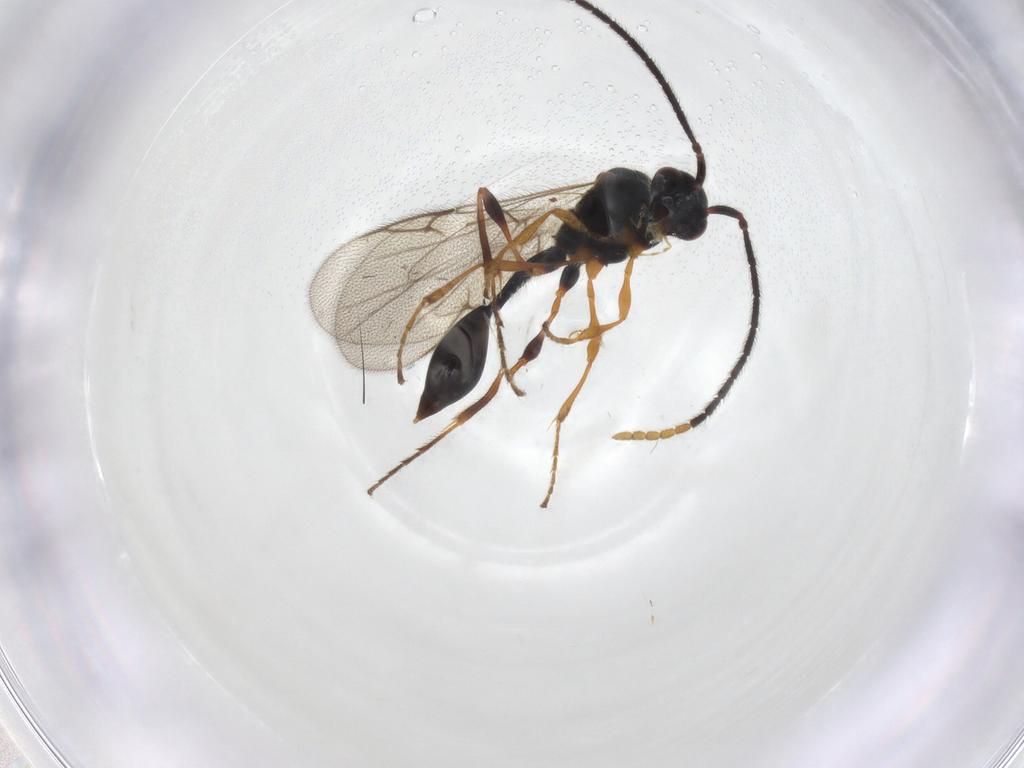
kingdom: Animalia
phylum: Arthropoda
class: Insecta
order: Hymenoptera
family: Diapriidae
